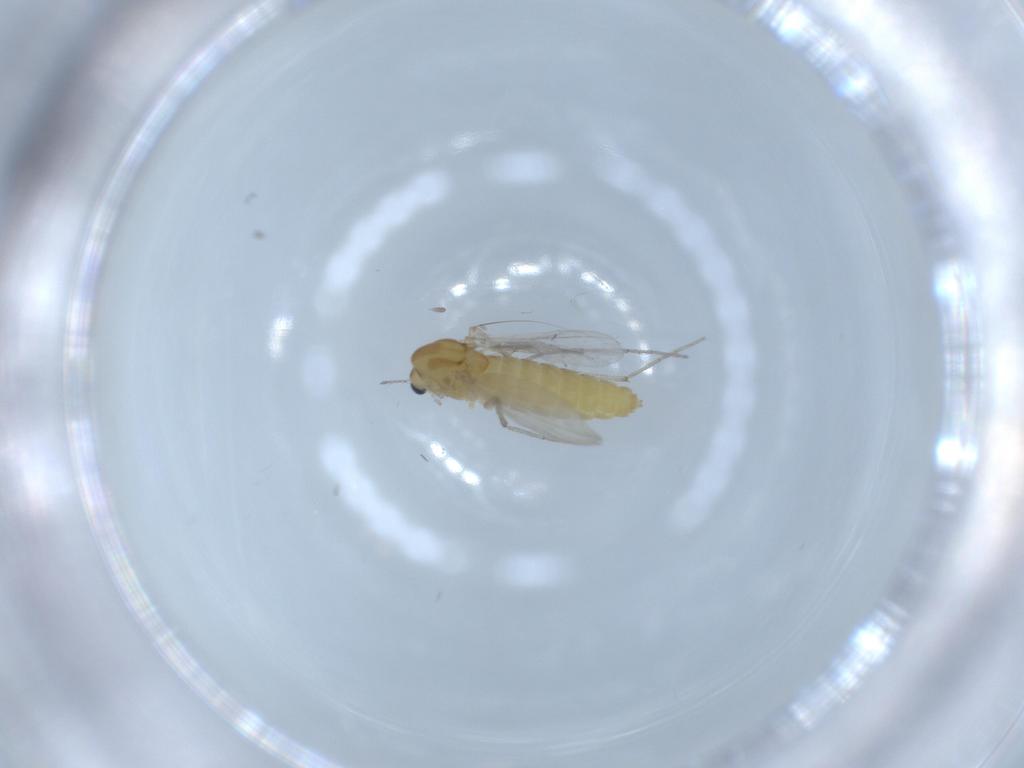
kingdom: Animalia
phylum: Arthropoda
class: Insecta
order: Diptera
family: Chironomidae
